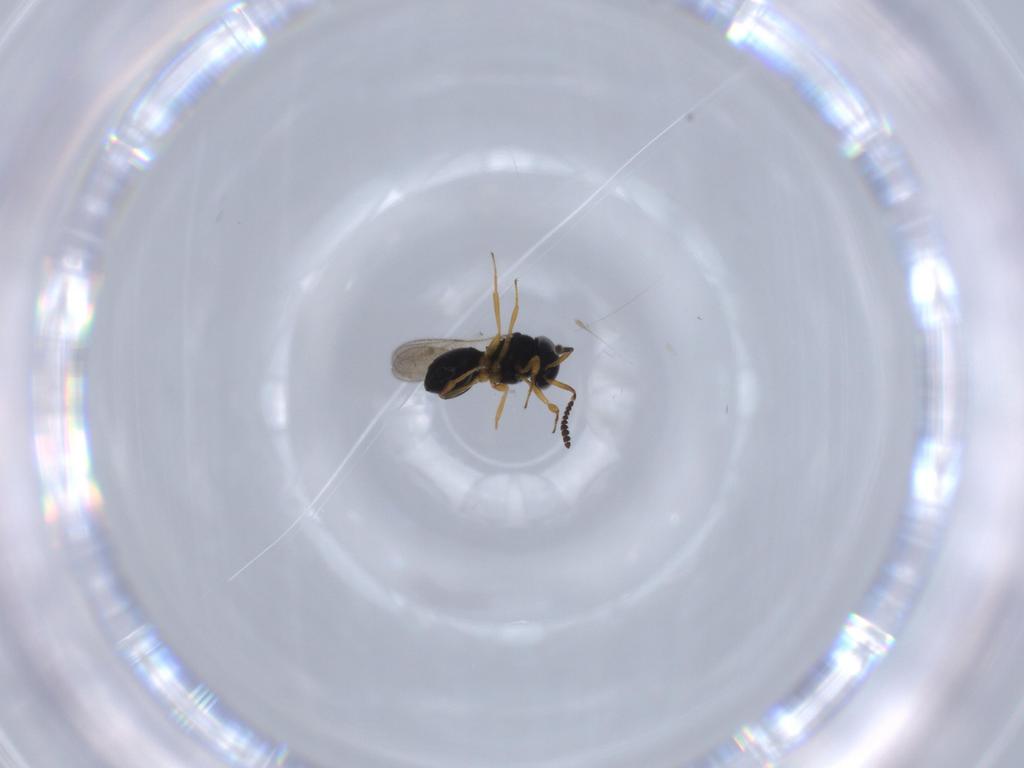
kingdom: Animalia
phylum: Arthropoda
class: Insecta
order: Hymenoptera
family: Scelionidae
